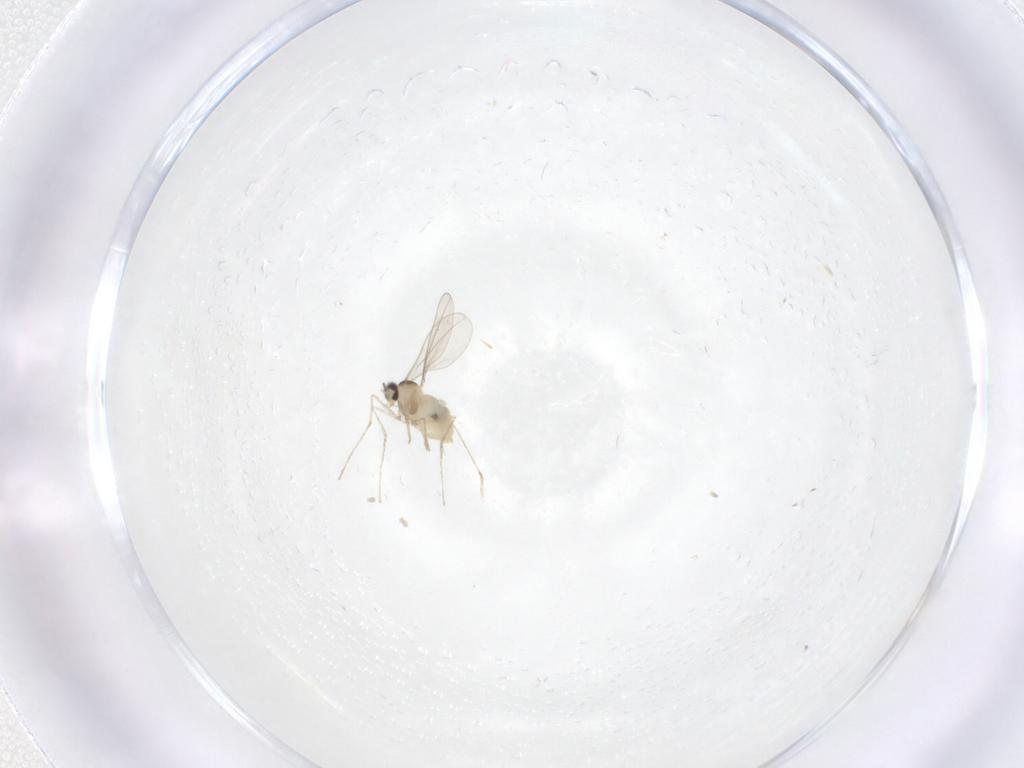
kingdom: Animalia
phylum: Arthropoda
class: Insecta
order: Diptera
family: Cecidomyiidae
